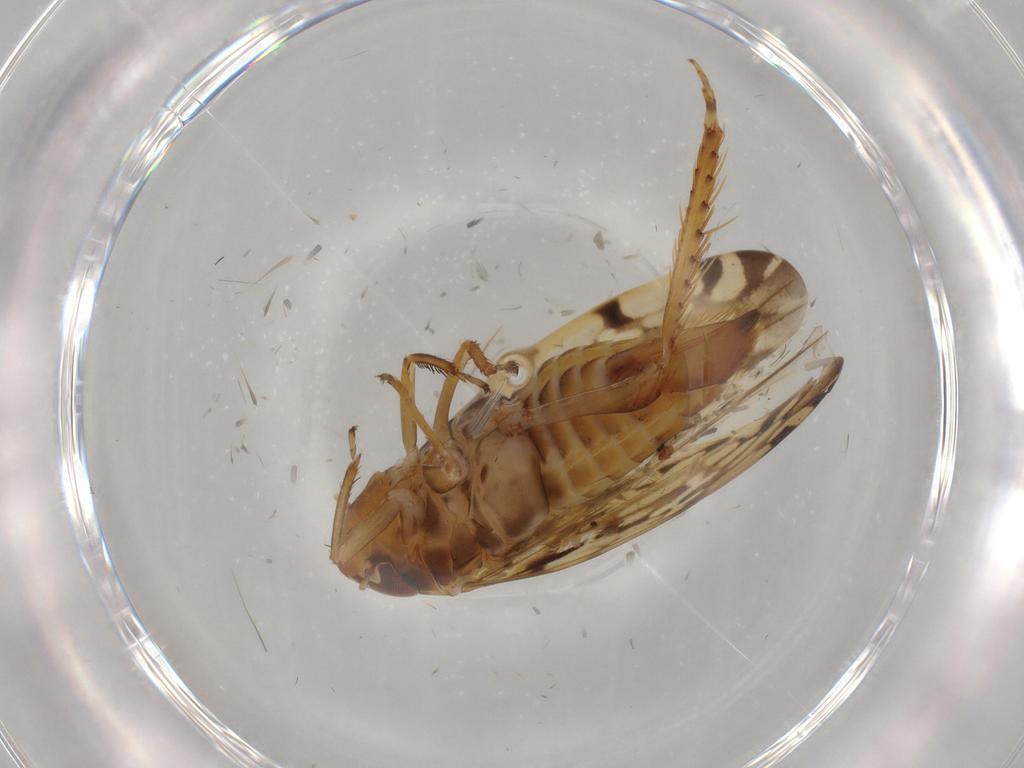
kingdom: Animalia
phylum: Arthropoda
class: Insecta
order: Hemiptera
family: Cicadellidae
